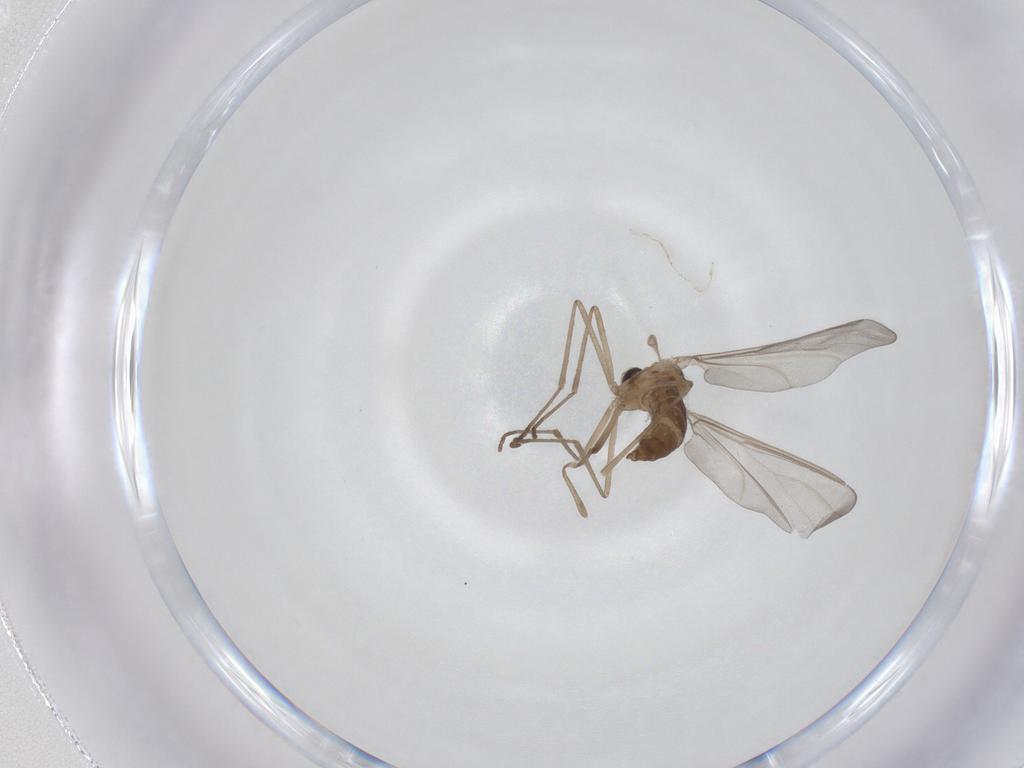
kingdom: Animalia
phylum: Arthropoda
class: Insecta
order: Diptera
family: Cecidomyiidae
